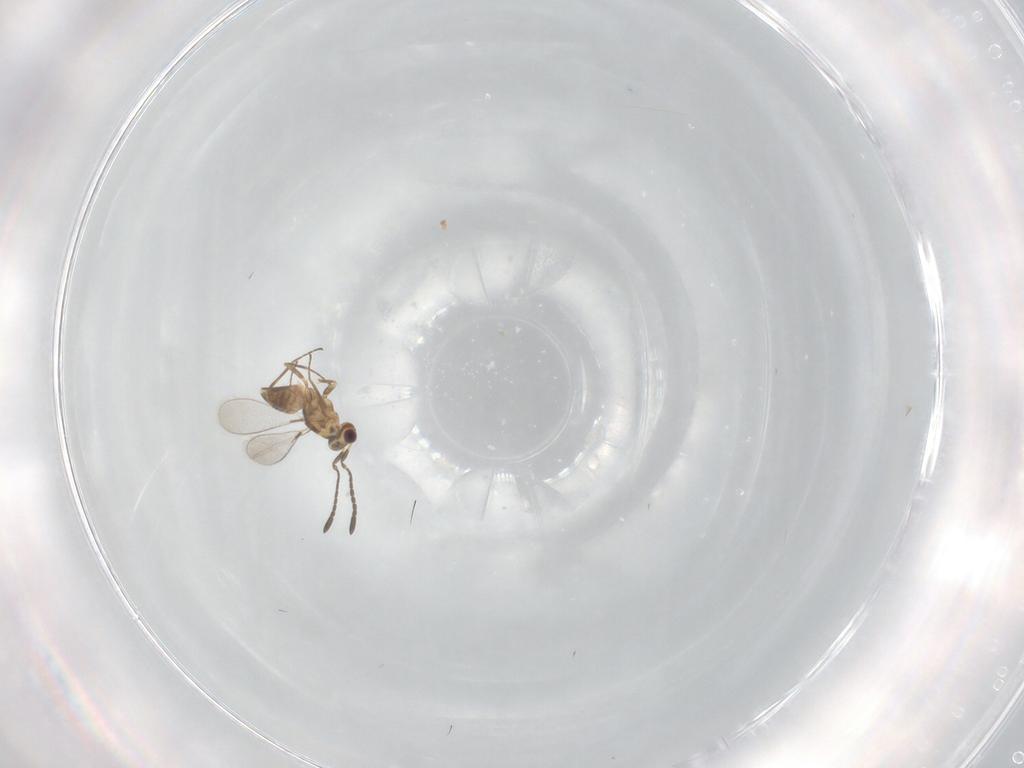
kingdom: Animalia
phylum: Arthropoda
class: Insecta
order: Hymenoptera
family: Mymaridae
